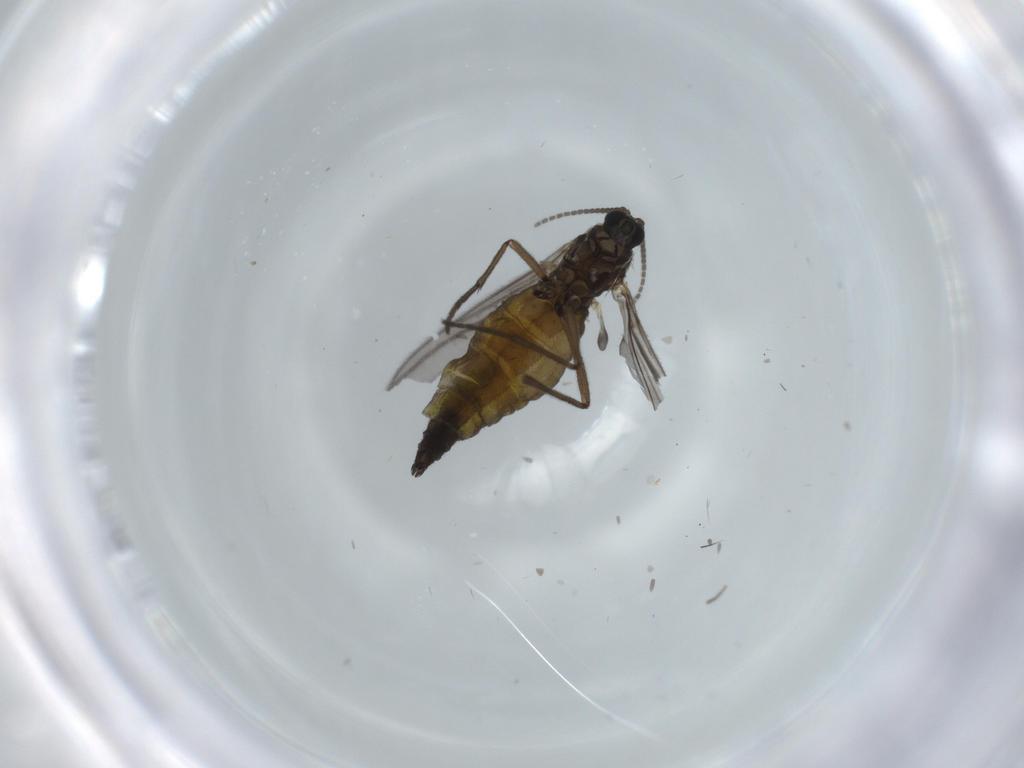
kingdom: Animalia
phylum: Arthropoda
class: Insecta
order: Diptera
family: Sciaridae
